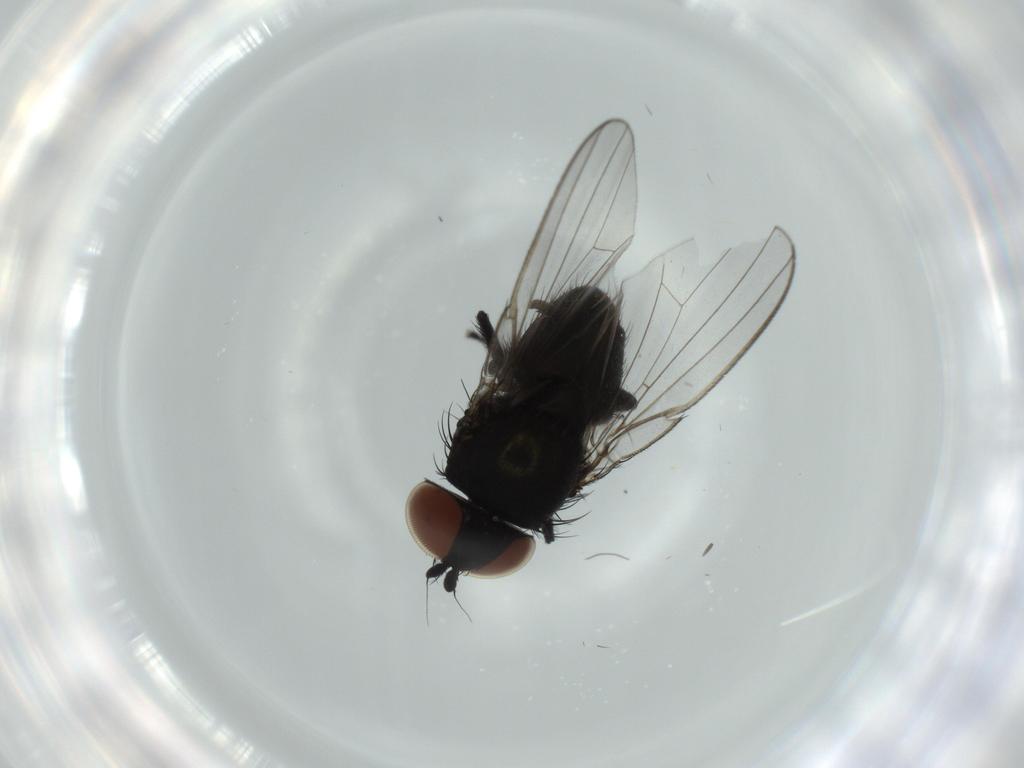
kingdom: Animalia
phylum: Arthropoda
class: Insecta
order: Diptera
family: Milichiidae
